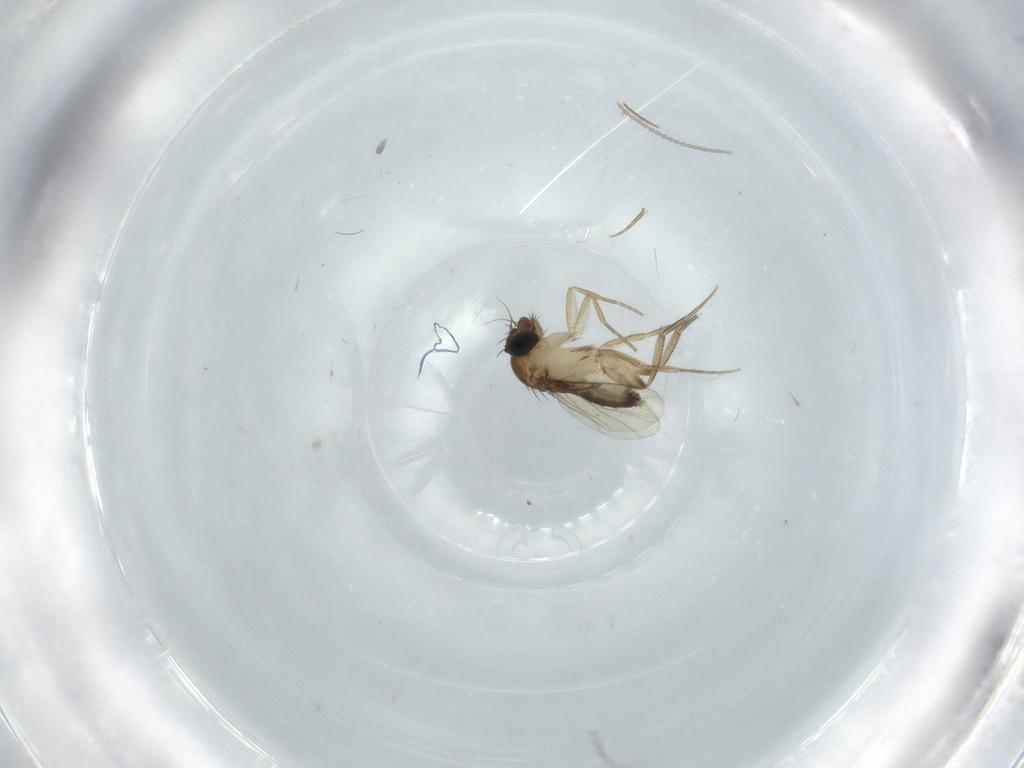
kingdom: Animalia
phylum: Arthropoda
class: Insecta
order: Diptera
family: Phoridae
